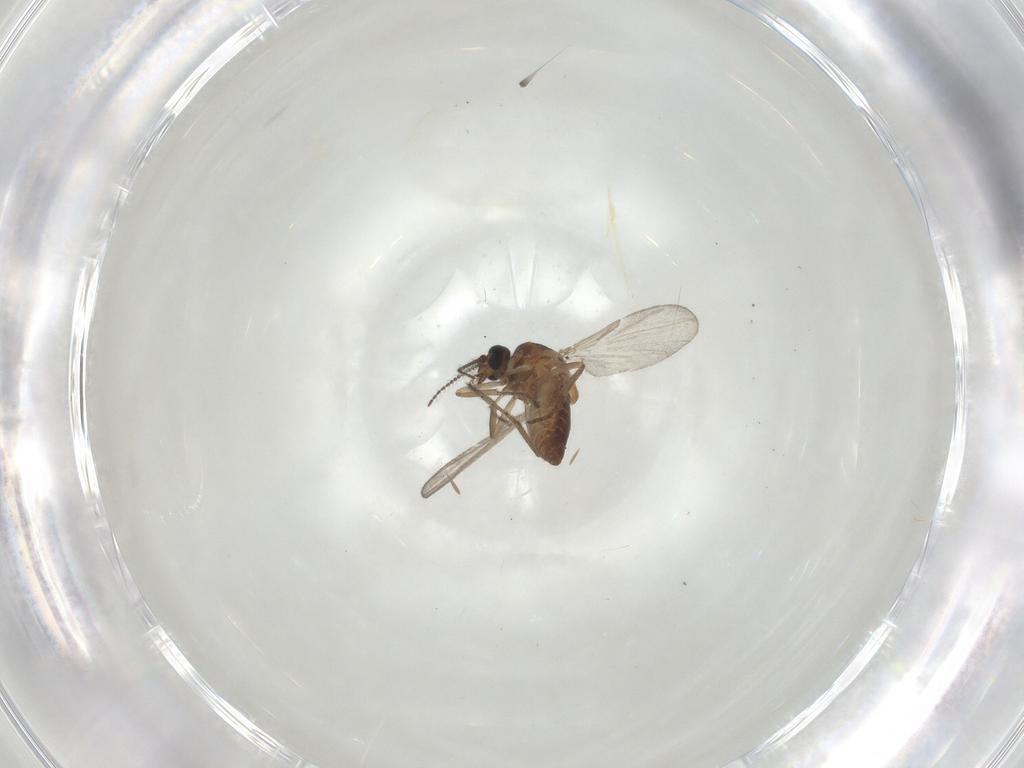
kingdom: Animalia
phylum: Arthropoda
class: Insecta
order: Diptera
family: Ceratopogonidae
